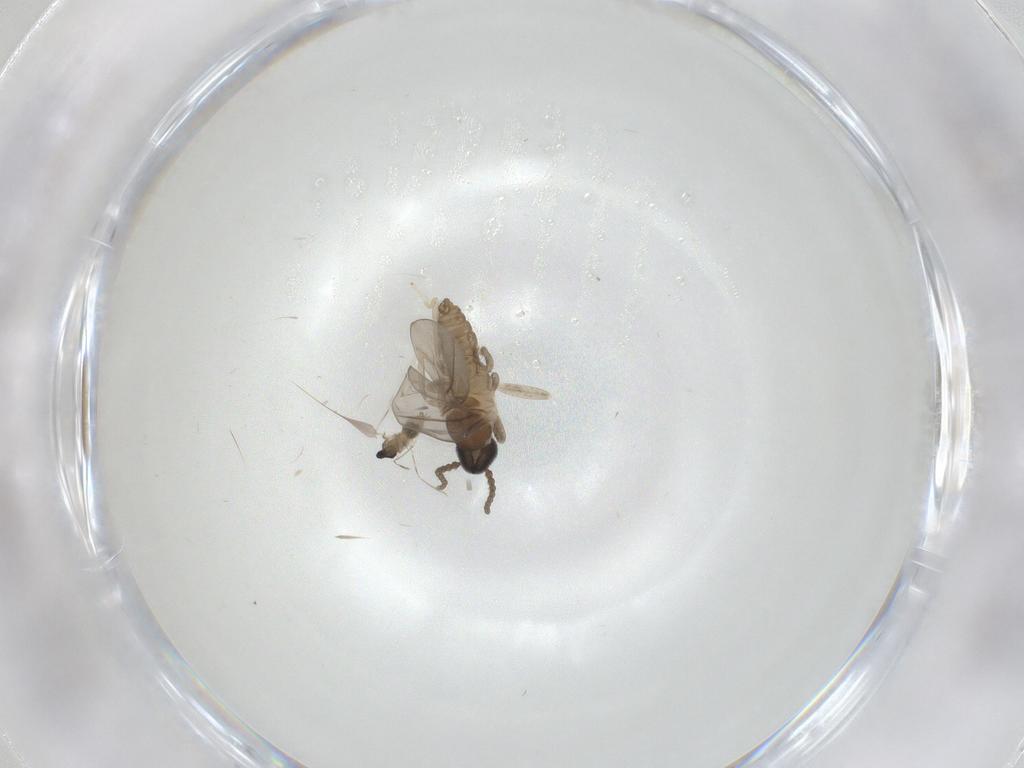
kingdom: Animalia
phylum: Arthropoda
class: Insecta
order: Diptera
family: Cecidomyiidae
